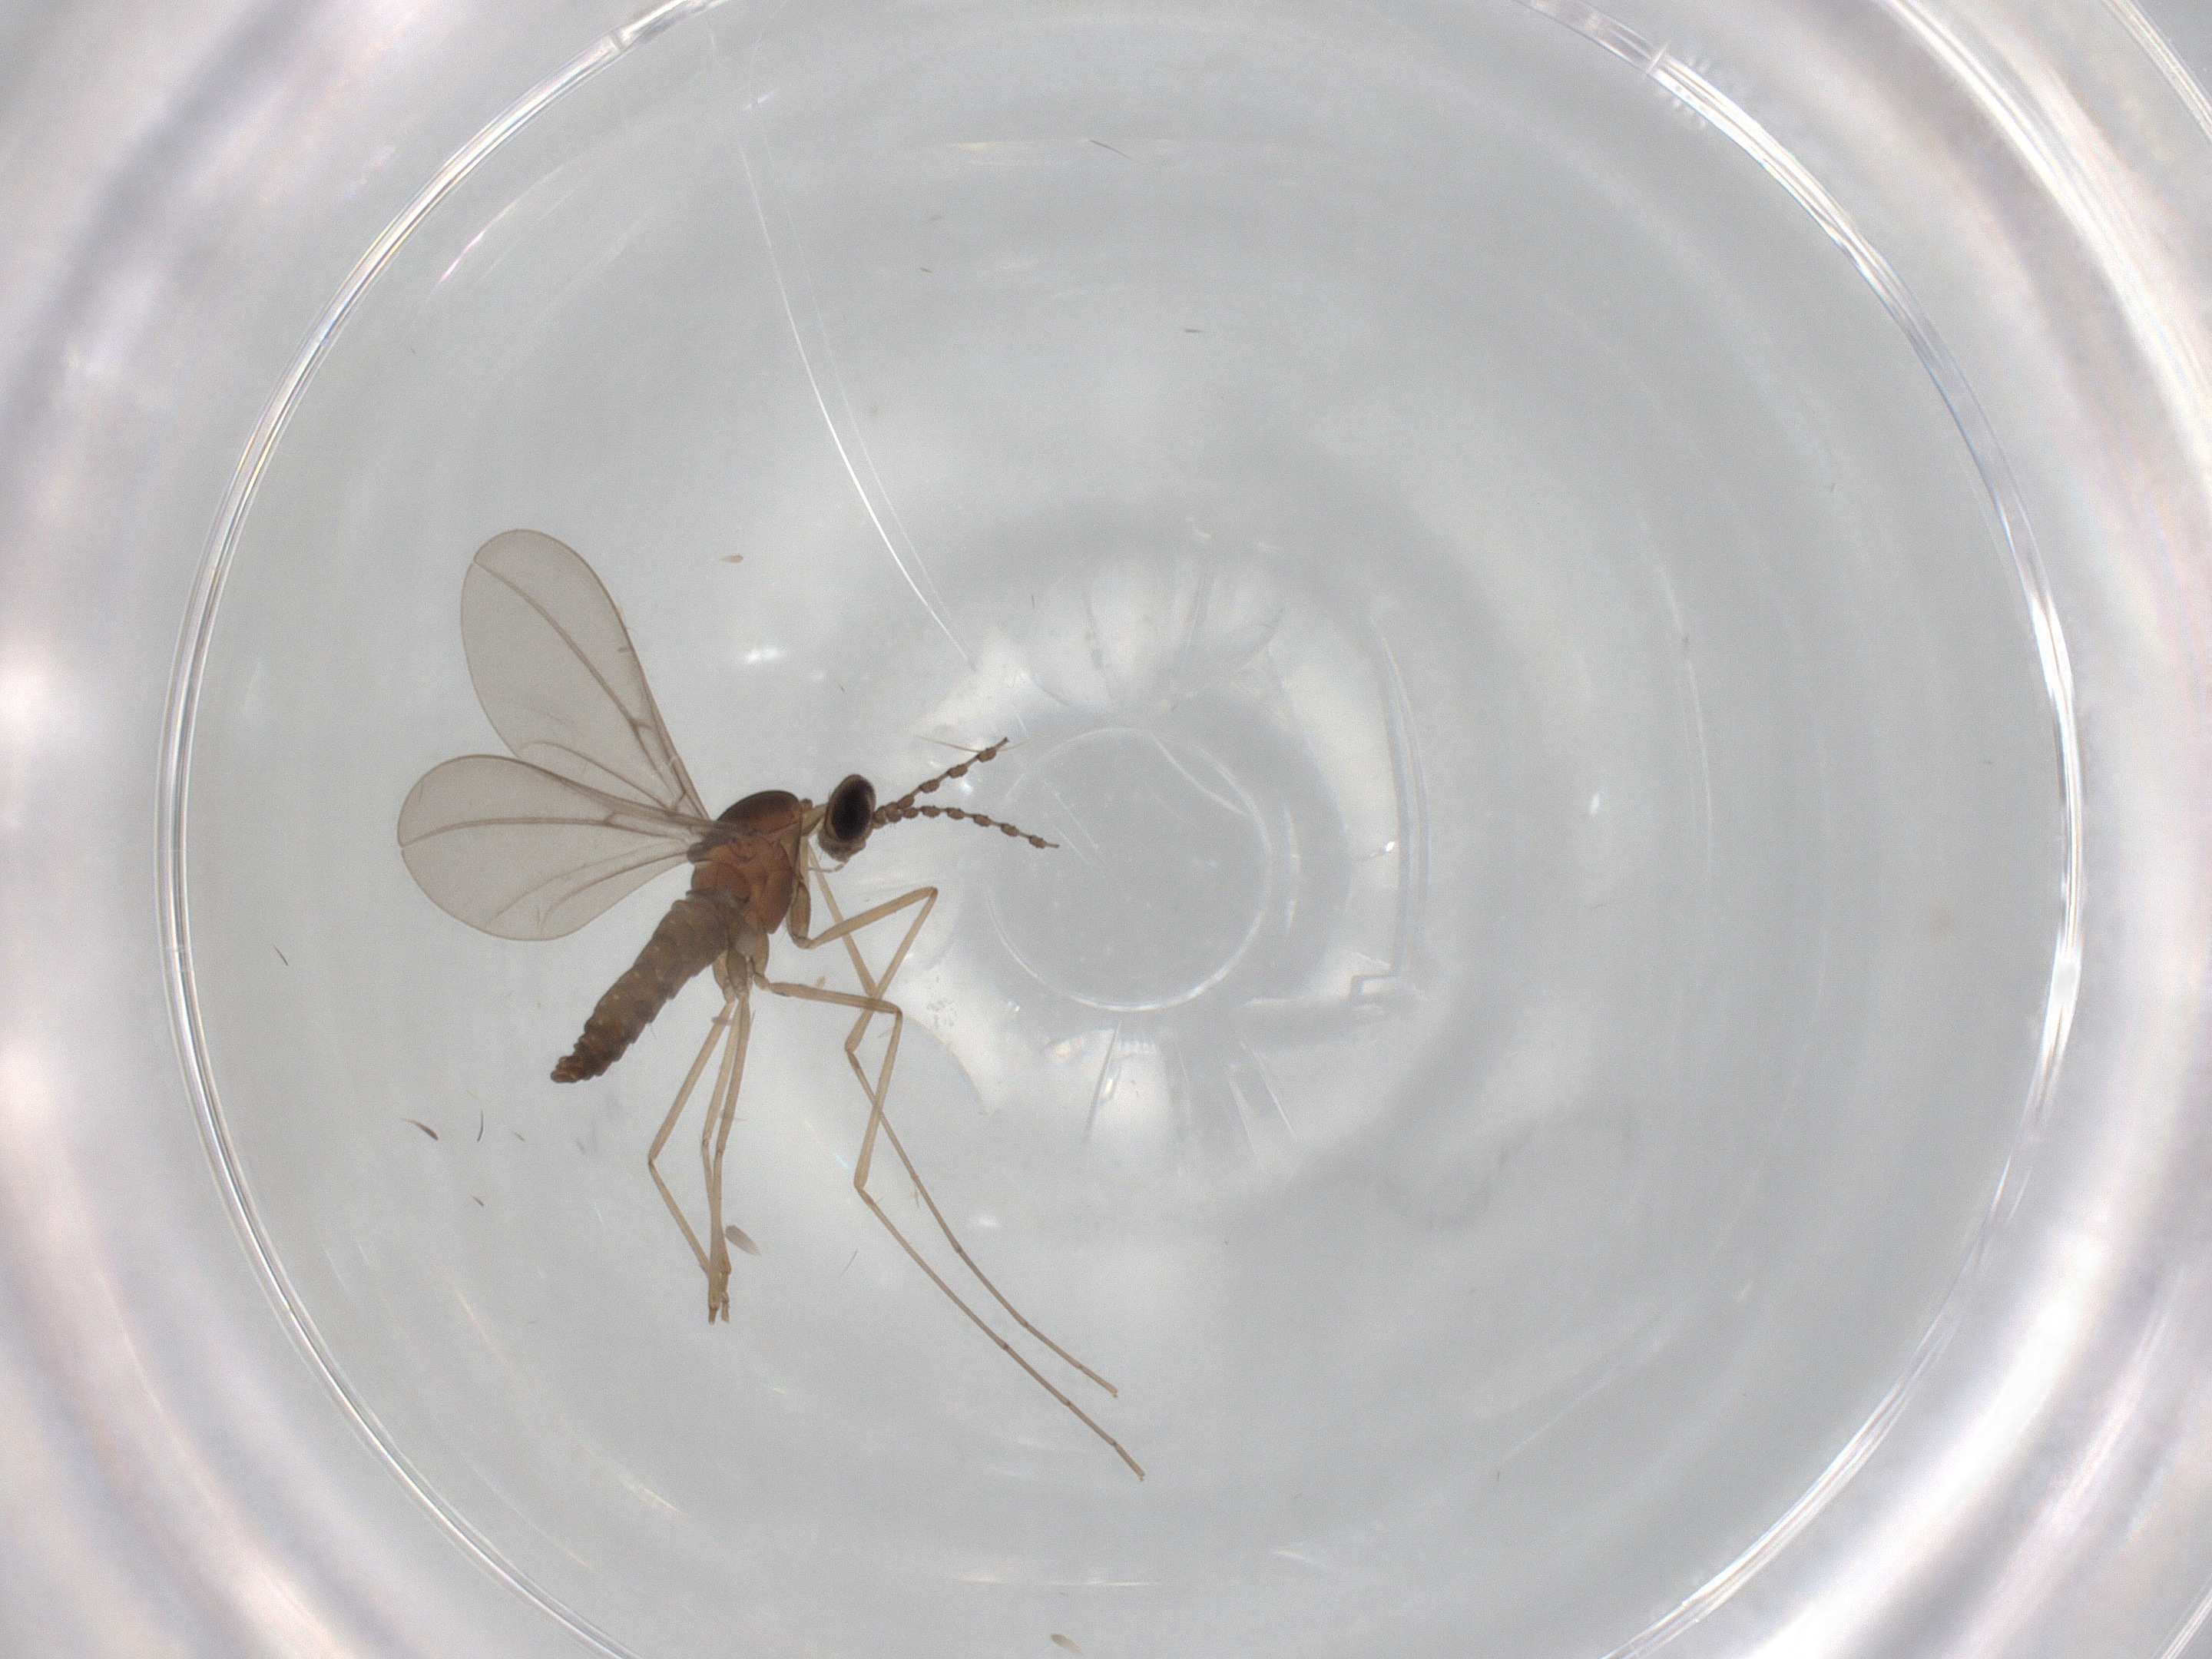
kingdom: Animalia
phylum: Arthropoda
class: Insecta
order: Diptera
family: Cecidomyiidae
